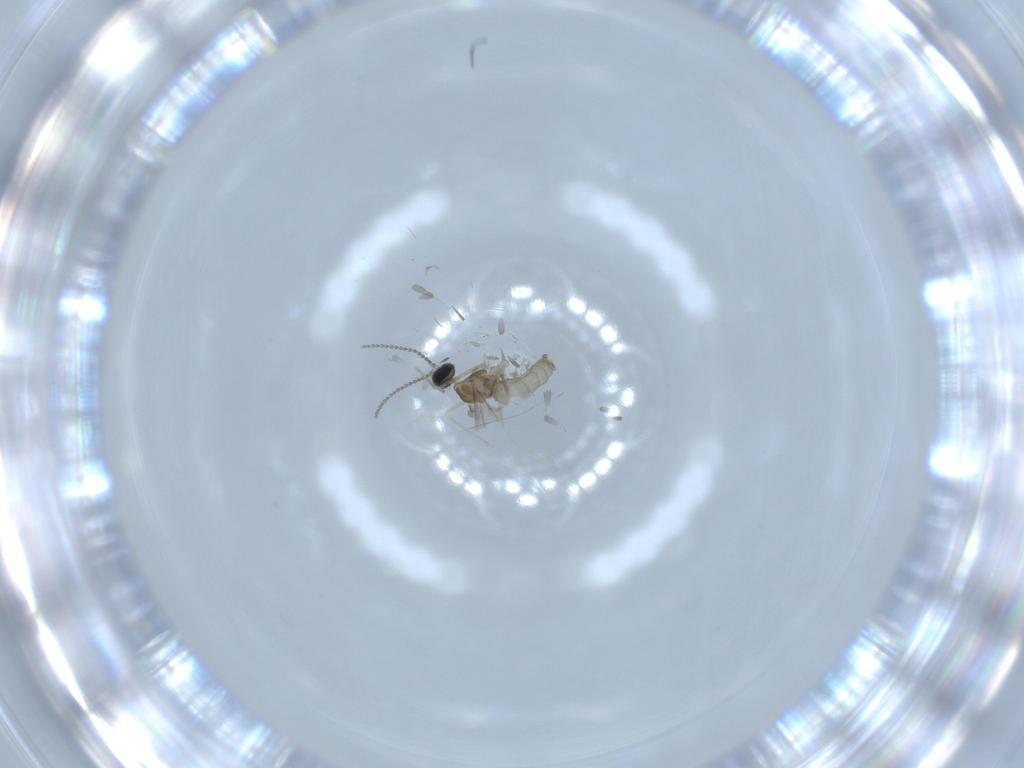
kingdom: Animalia
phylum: Arthropoda
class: Insecta
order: Diptera
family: Cecidomyiidae
